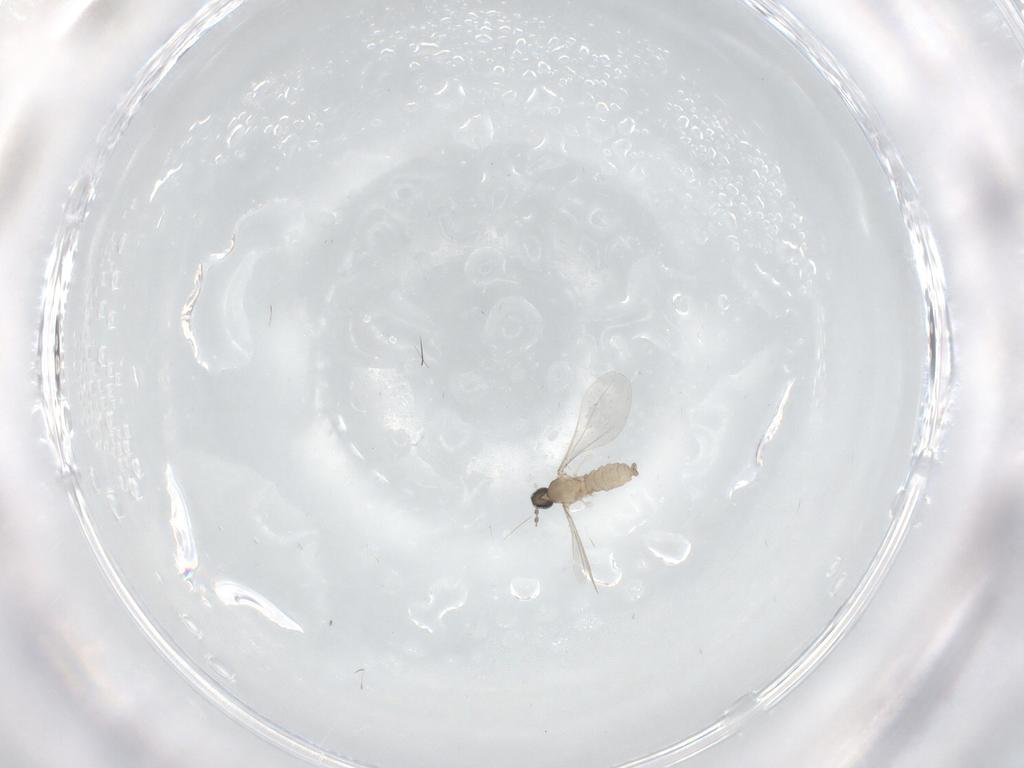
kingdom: Animalia
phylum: Arthropoda
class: Insecta
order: Diptera
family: Cecidomyiidae
